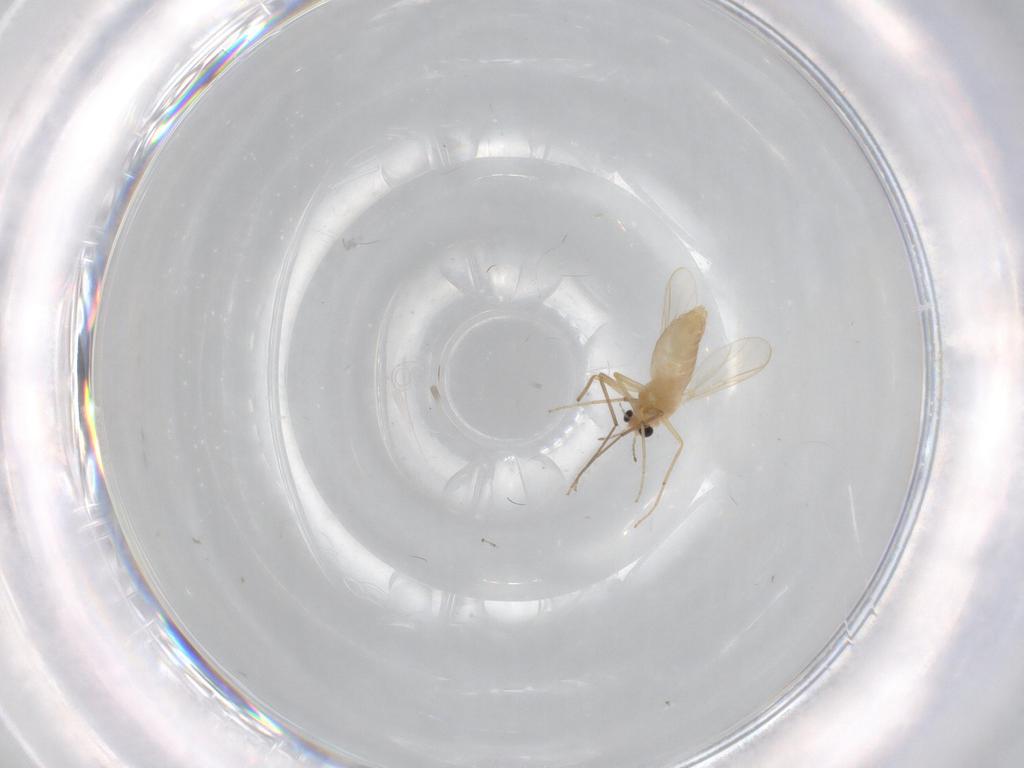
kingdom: Animalia
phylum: Arthropoda
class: Insecta
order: Diptera
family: Chironomidae
